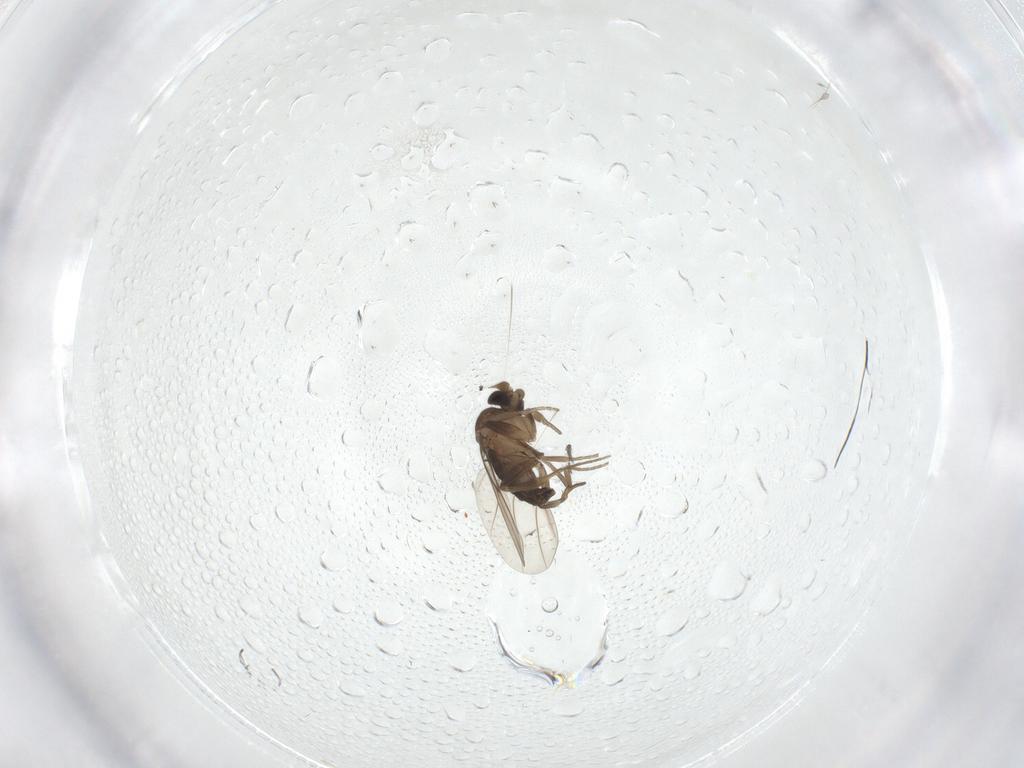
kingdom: Animalia
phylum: Arthropoda
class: Insecta
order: Diptera
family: Phoridae
